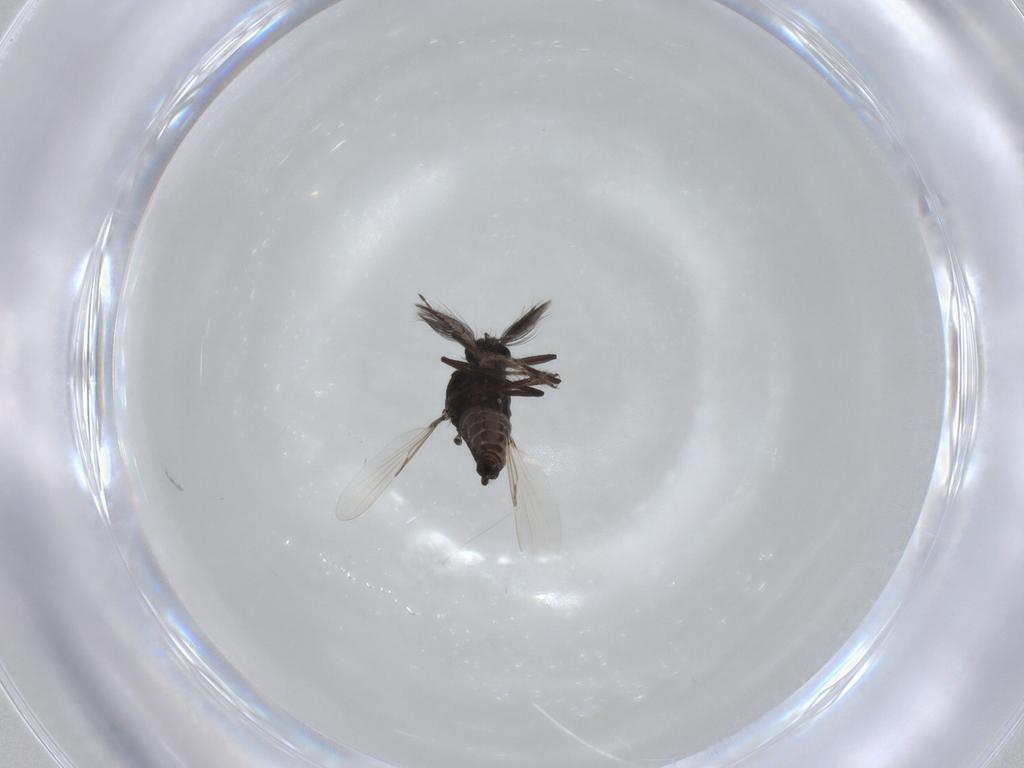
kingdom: Animalia
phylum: Arthropoda
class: Insecta
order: Diptera
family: Ceratopogonidae
